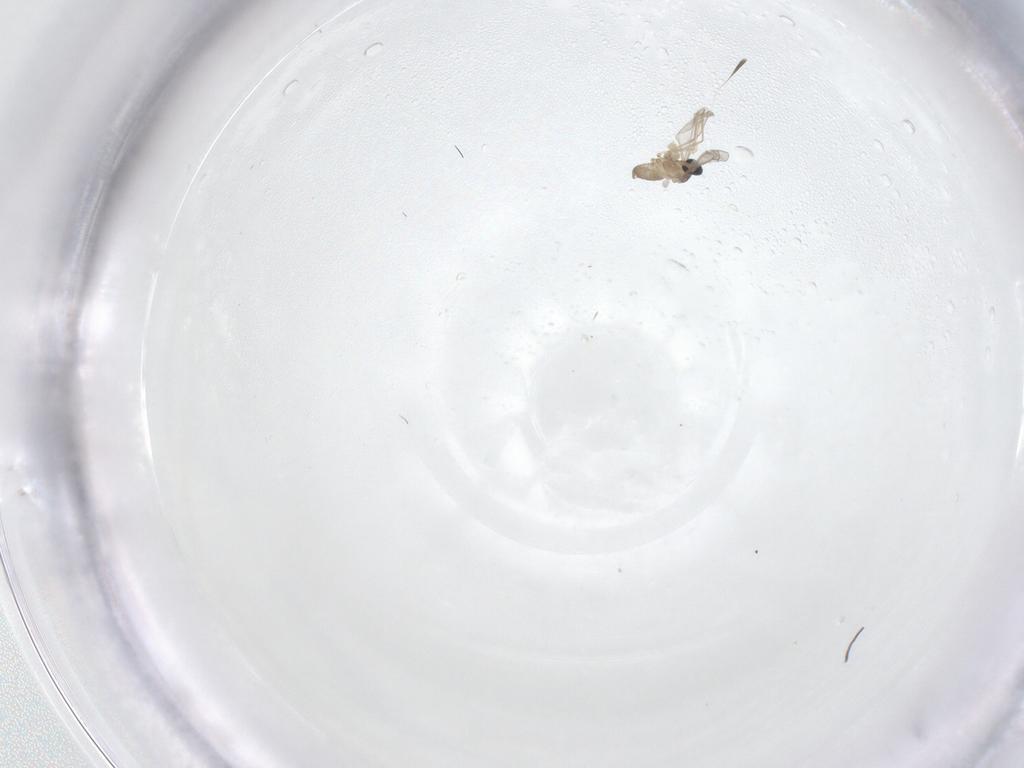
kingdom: Animalia
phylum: Arthropoda
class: Insecta
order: Diptera
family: Cecidomyiidae
